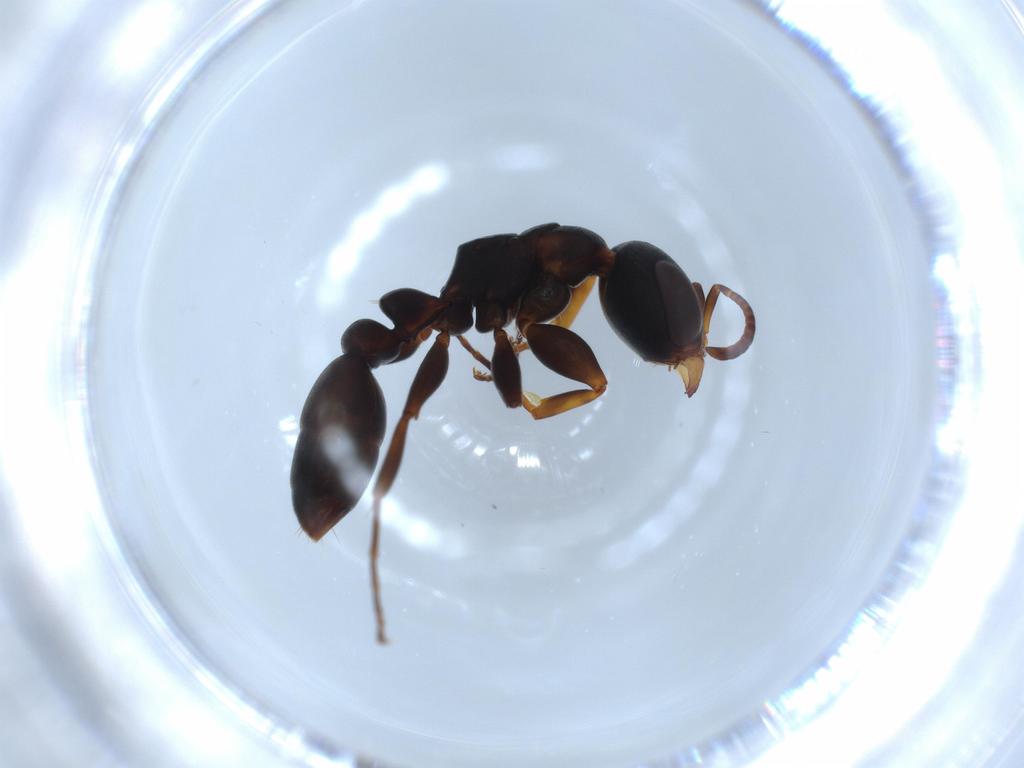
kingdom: Animalia
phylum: Arthropoda
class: Insecta
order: Hymenoptera
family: Formicidae
